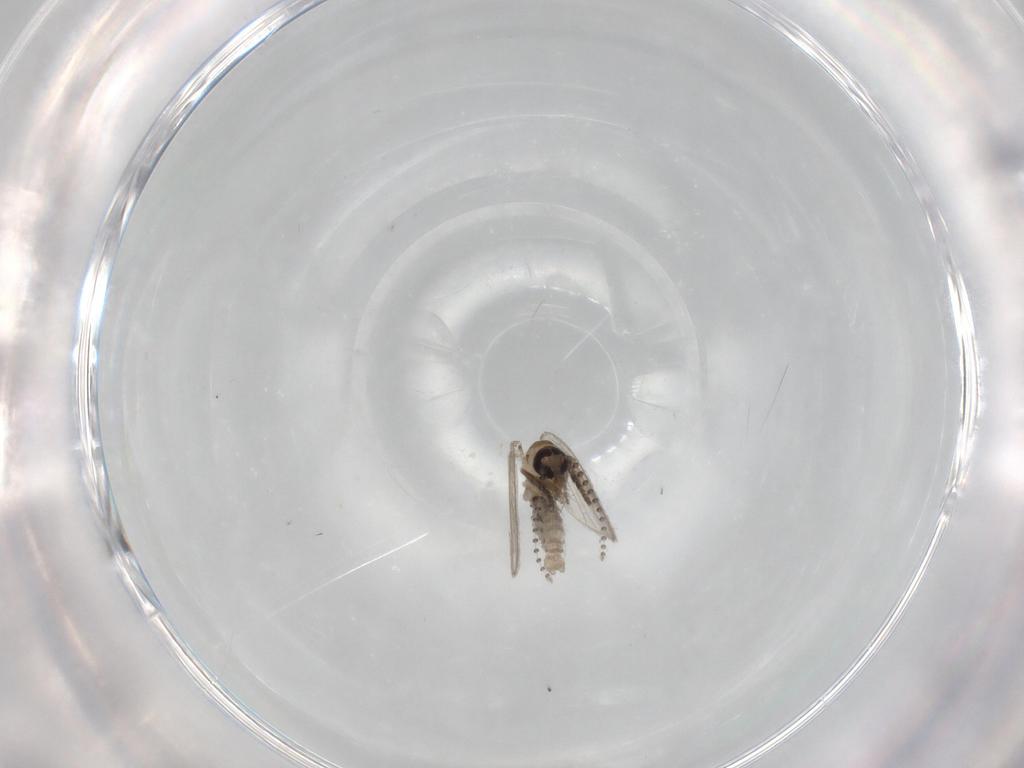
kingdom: Animalia
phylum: Arthropoda
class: Insecta
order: Diptera
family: Psychodidae
